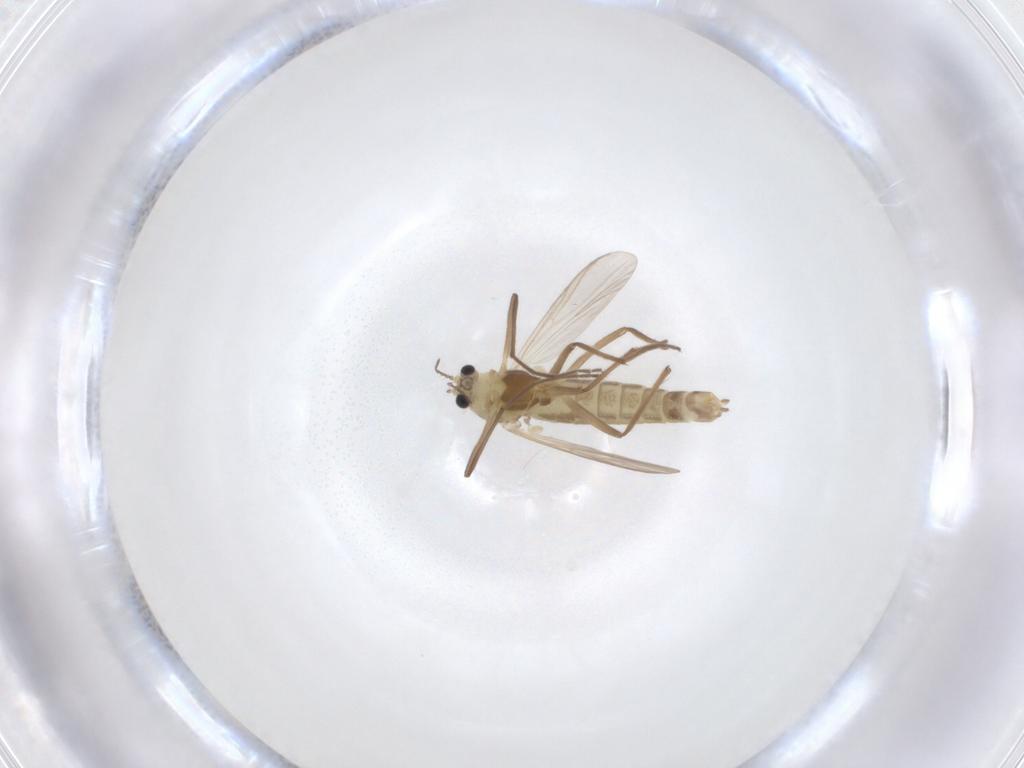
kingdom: Animalia
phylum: Arthropoda
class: Insecta
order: Diptera
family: Chironomidae
